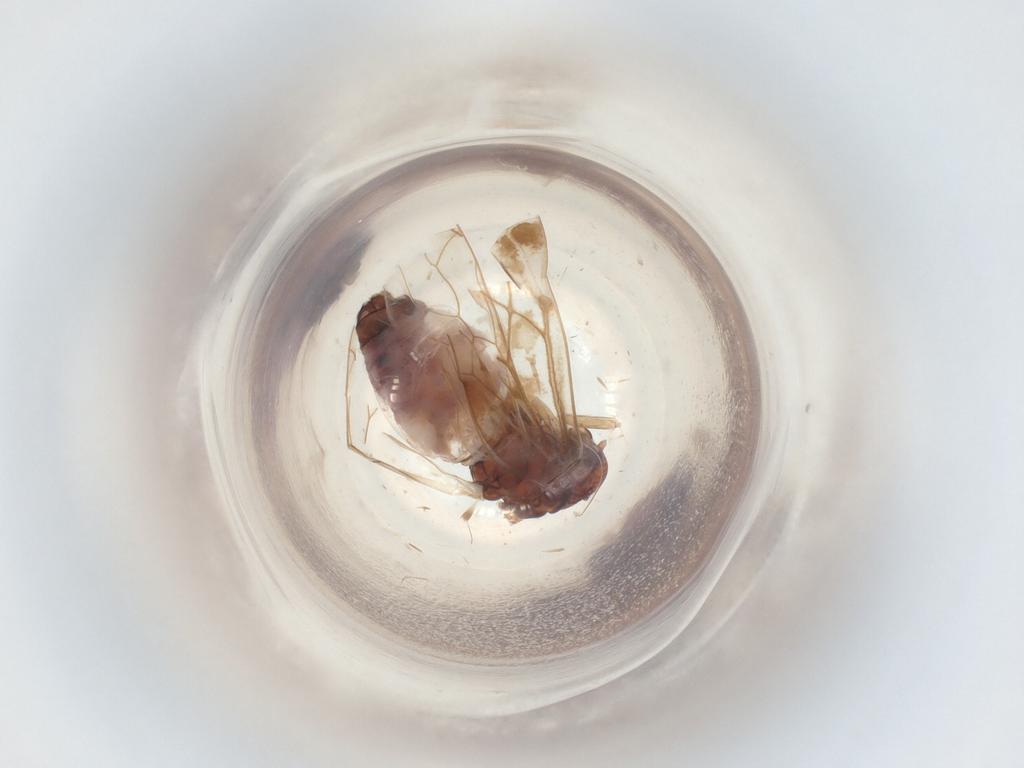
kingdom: Animalia
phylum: Arthropoda
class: Insecta
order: Psocodea
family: Psocidae
